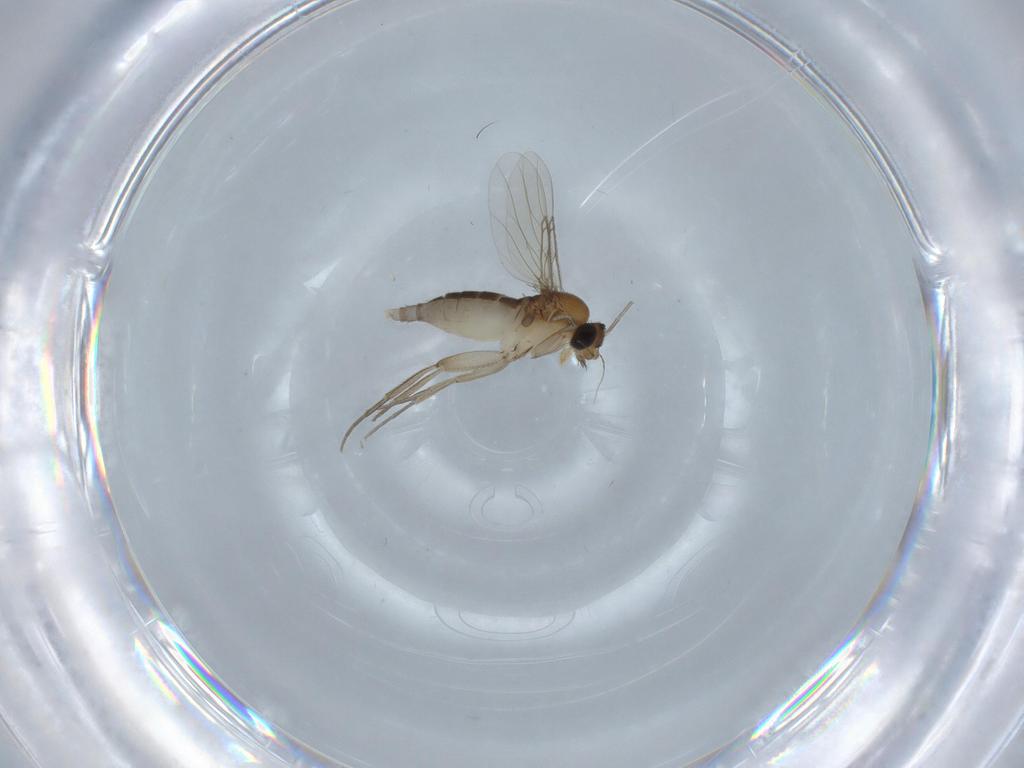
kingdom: Animalia
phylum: Arthropoda
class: Insecta
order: Diptera
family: Phoridae
